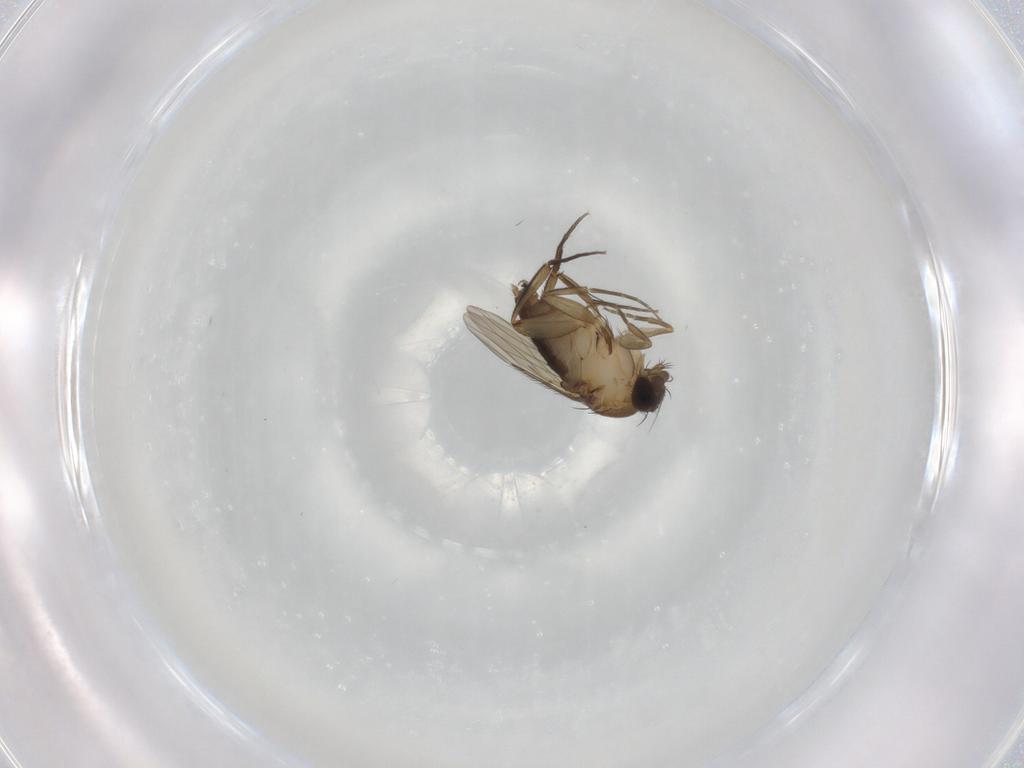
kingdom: Animalia
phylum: Arthropoda
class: Insecta
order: Diptera
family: Phoridae
